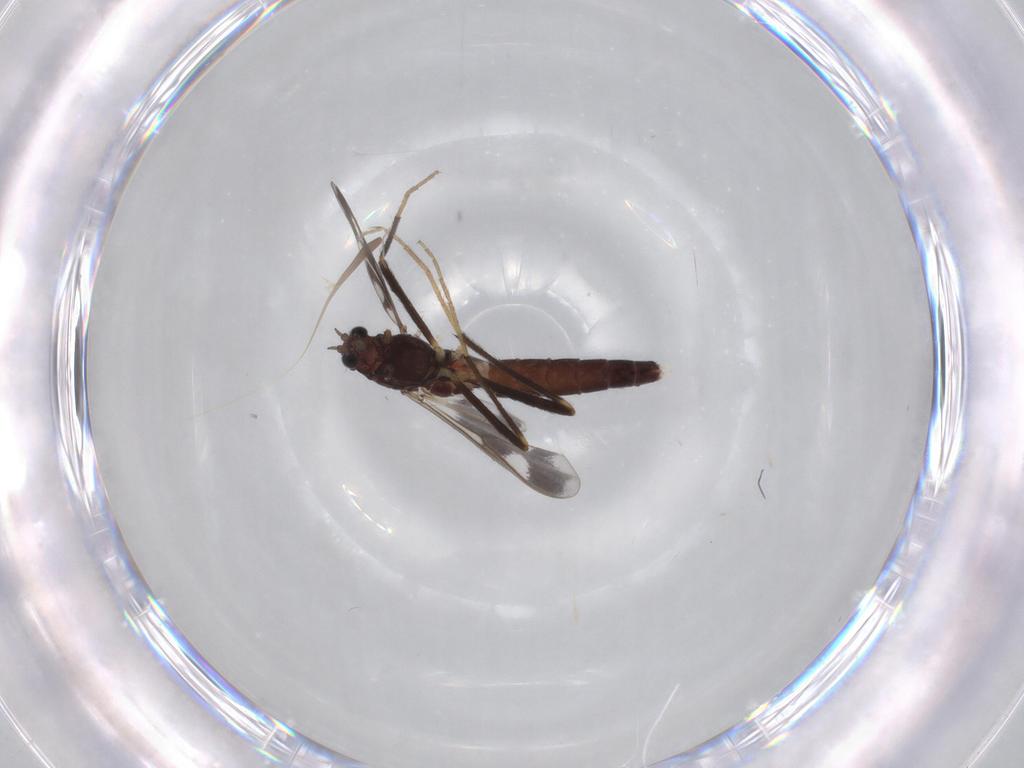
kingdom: Animalia
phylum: Arthropoda
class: Insecta
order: Diptera
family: Chironomidae
